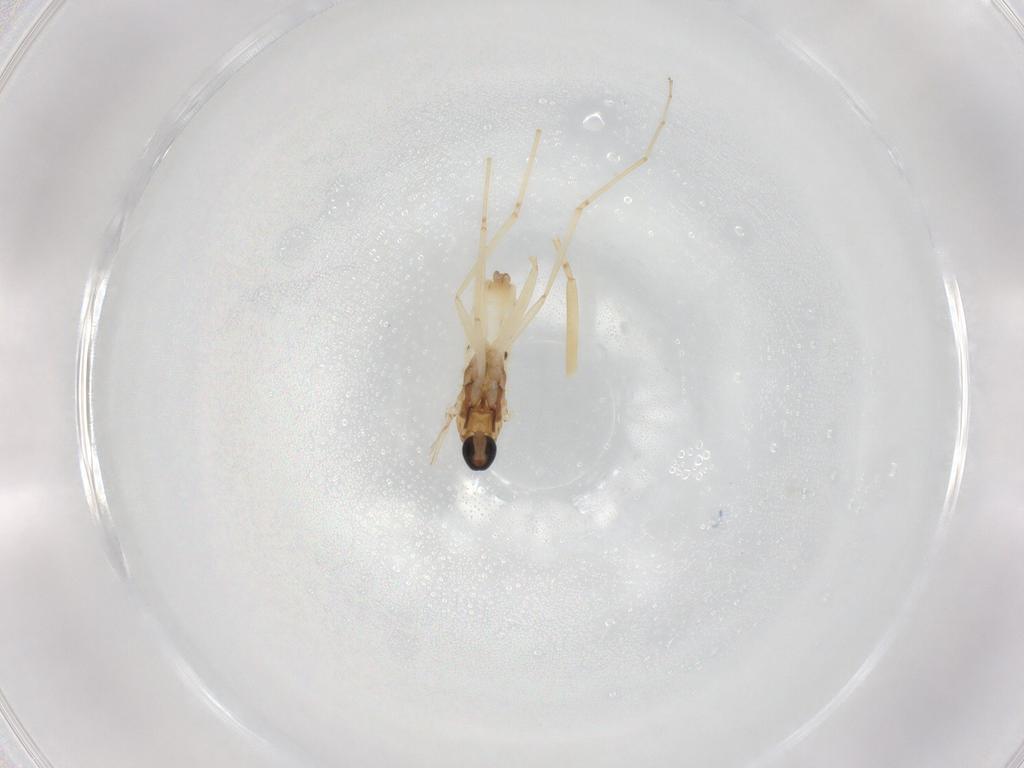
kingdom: Animalia
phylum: Arthropoda
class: Insecta
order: Diptera
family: Cecidomyiidae
